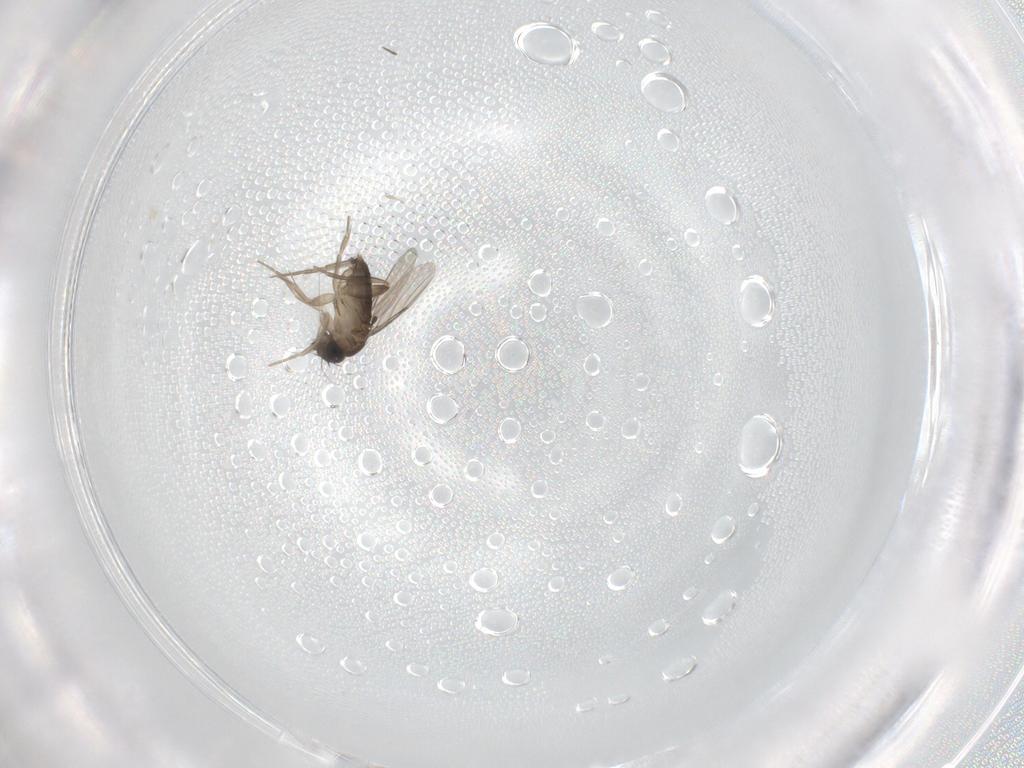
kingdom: Animalia
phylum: Arthropoda
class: Insecta
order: Diptera
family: Phoridae
